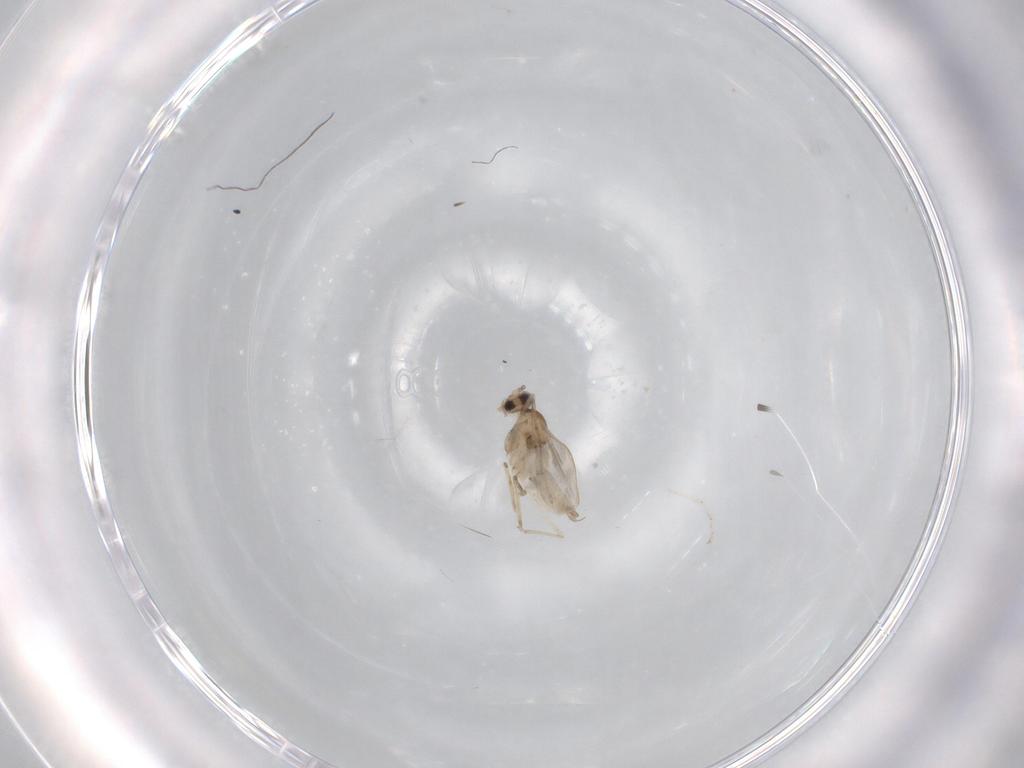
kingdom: Animalia
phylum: Arthropoda
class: Insecta
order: Diptera
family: Cecidomyiidae
